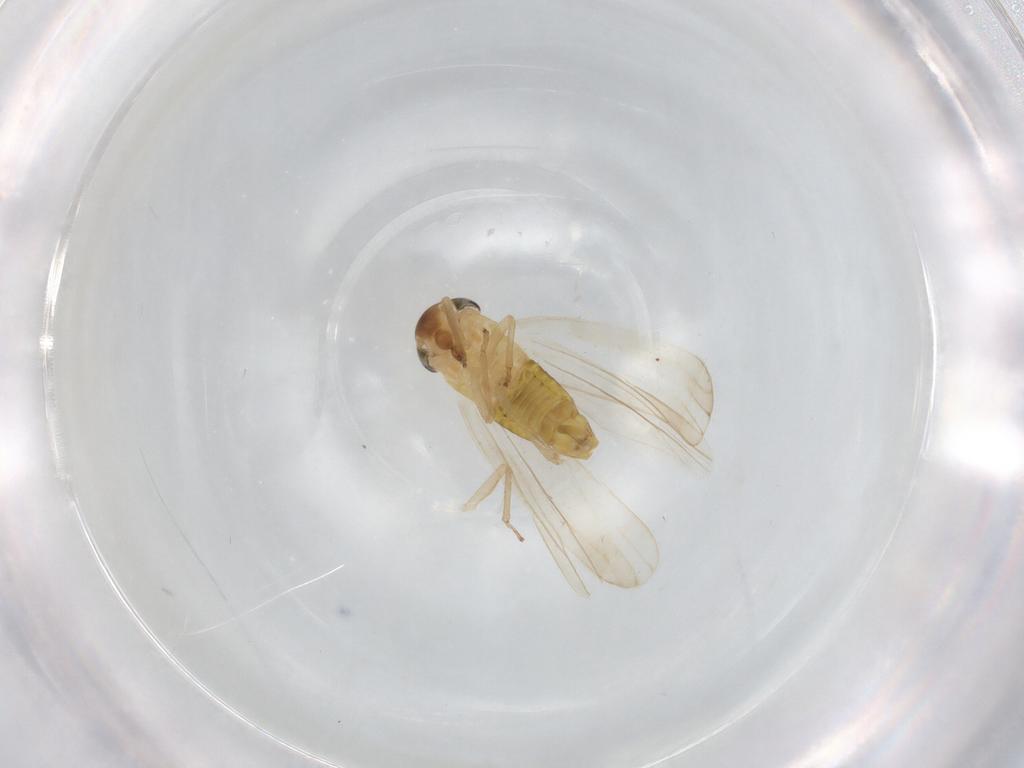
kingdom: Animalia
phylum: Arthropoda
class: Insecta
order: Hemiptera
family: Cicadellidae
